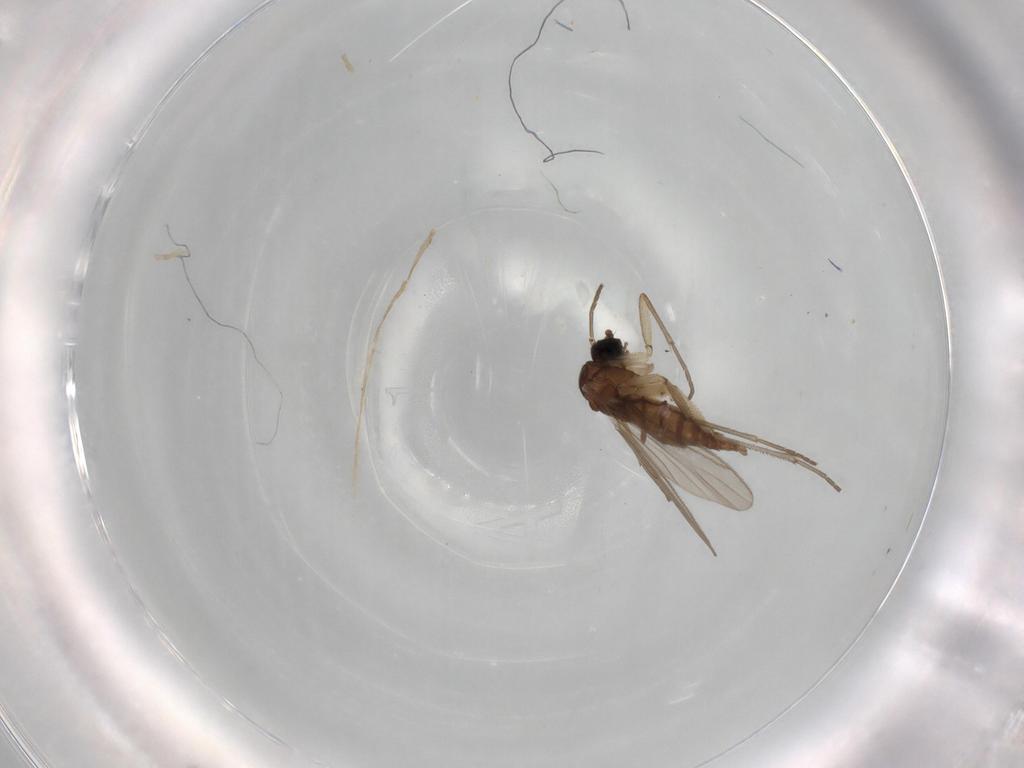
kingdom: Animalia
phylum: Arthropoda
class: Insecta
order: Diptera
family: Sciaridae
